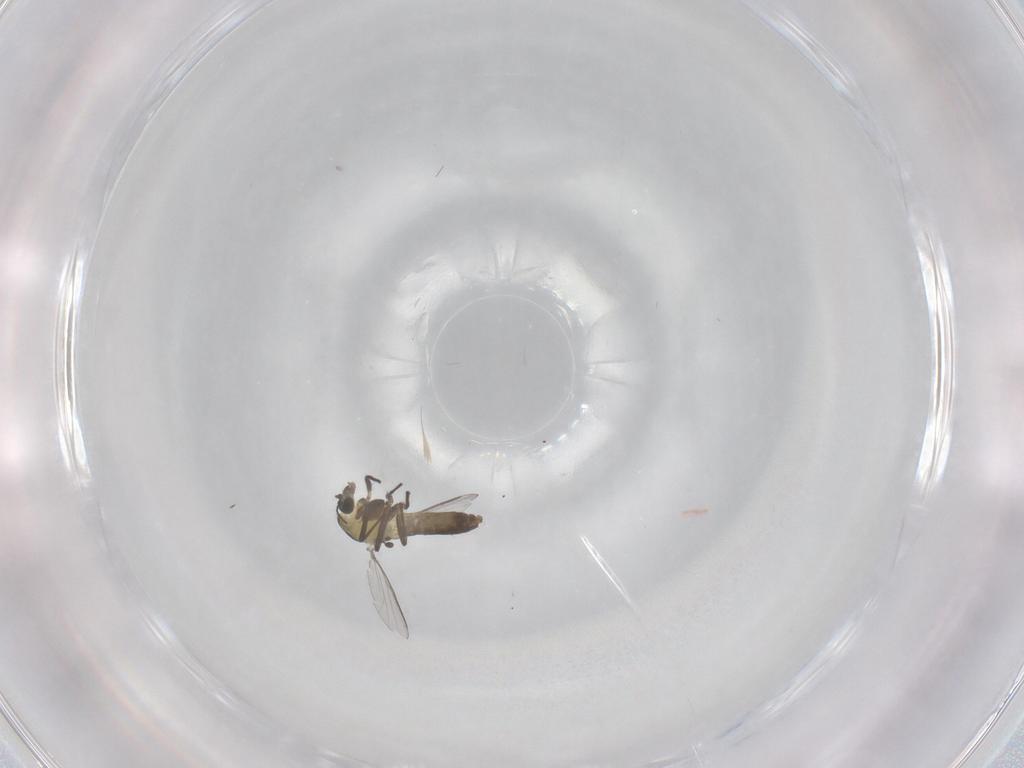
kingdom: Animalia
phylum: Arthropoda
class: Insecta
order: Diptera
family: Chironomidae
